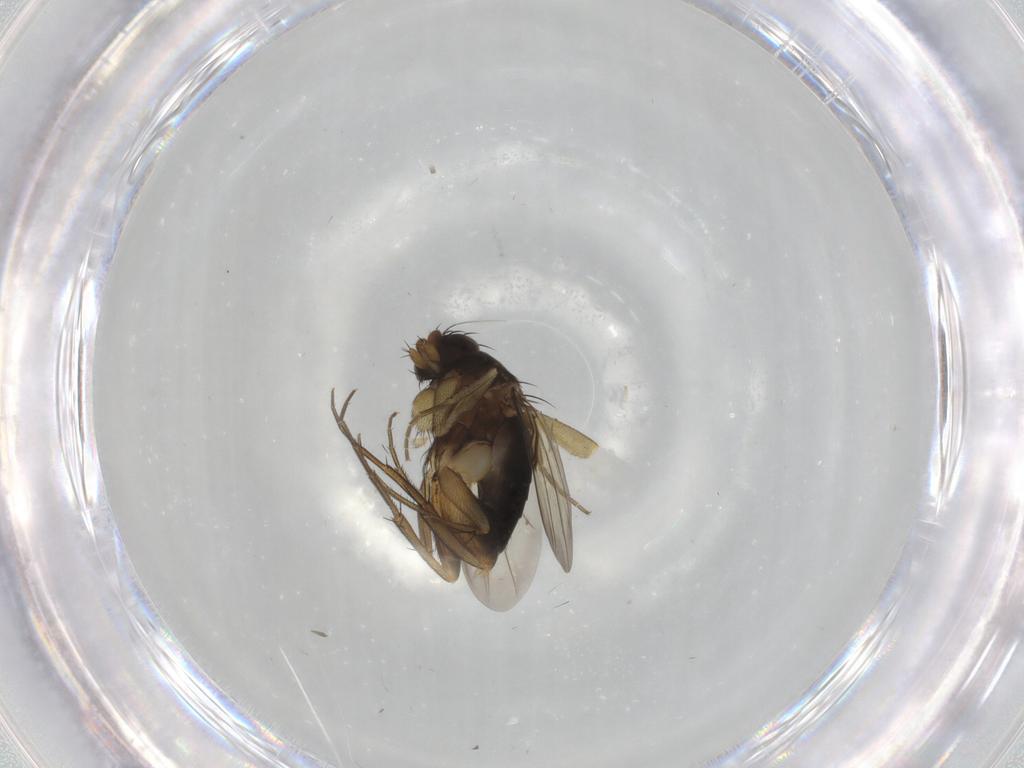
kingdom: Animalia
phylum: Arthropoda
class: Insecta
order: Diptera
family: Phoridae
